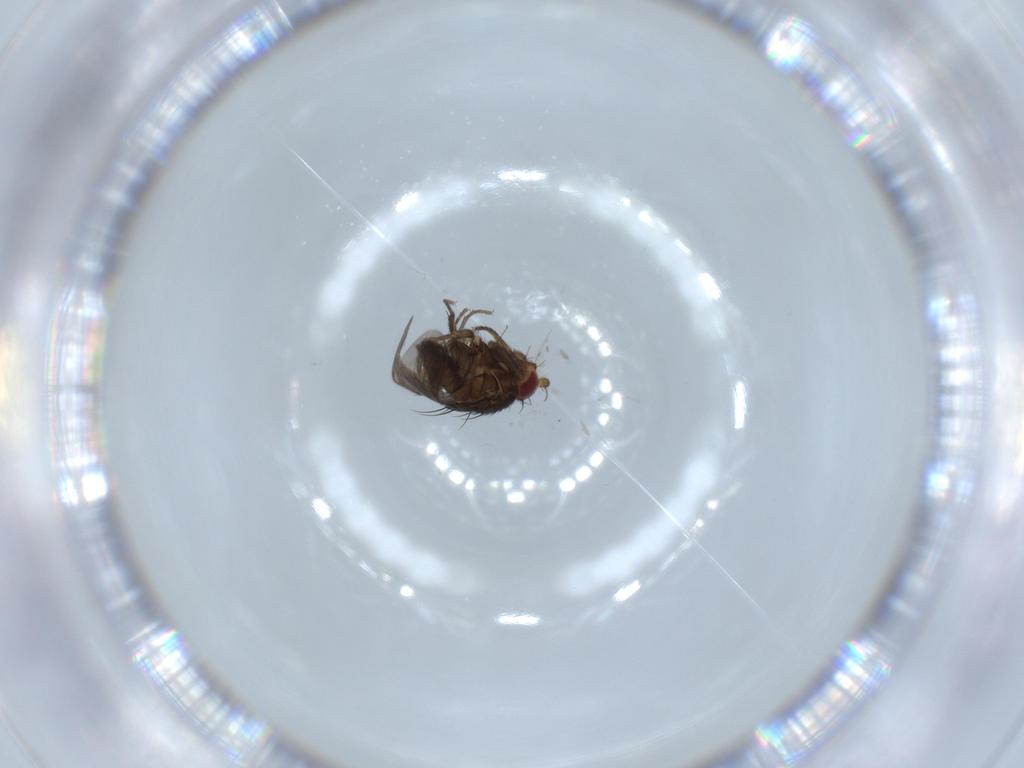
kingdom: Animalia
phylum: Arthropoda
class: Insecta
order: Diptera
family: Sphaeroceridae
